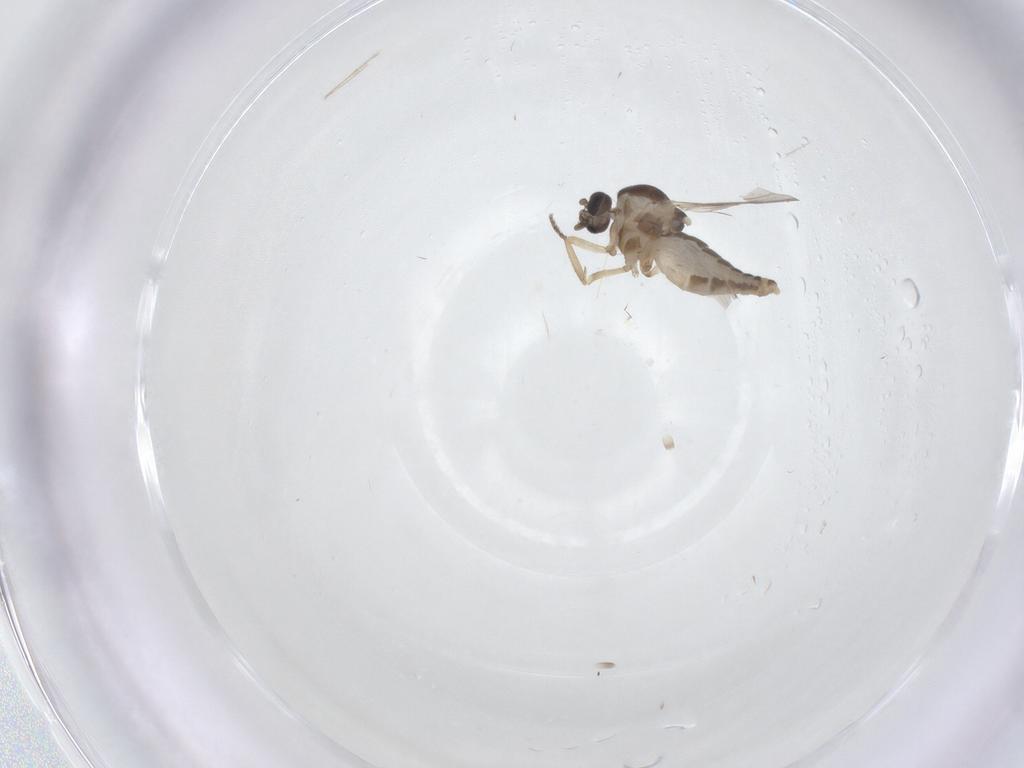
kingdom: Animalia
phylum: Arthropoda
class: Insecta
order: Diptera
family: Ceratopogonidae
